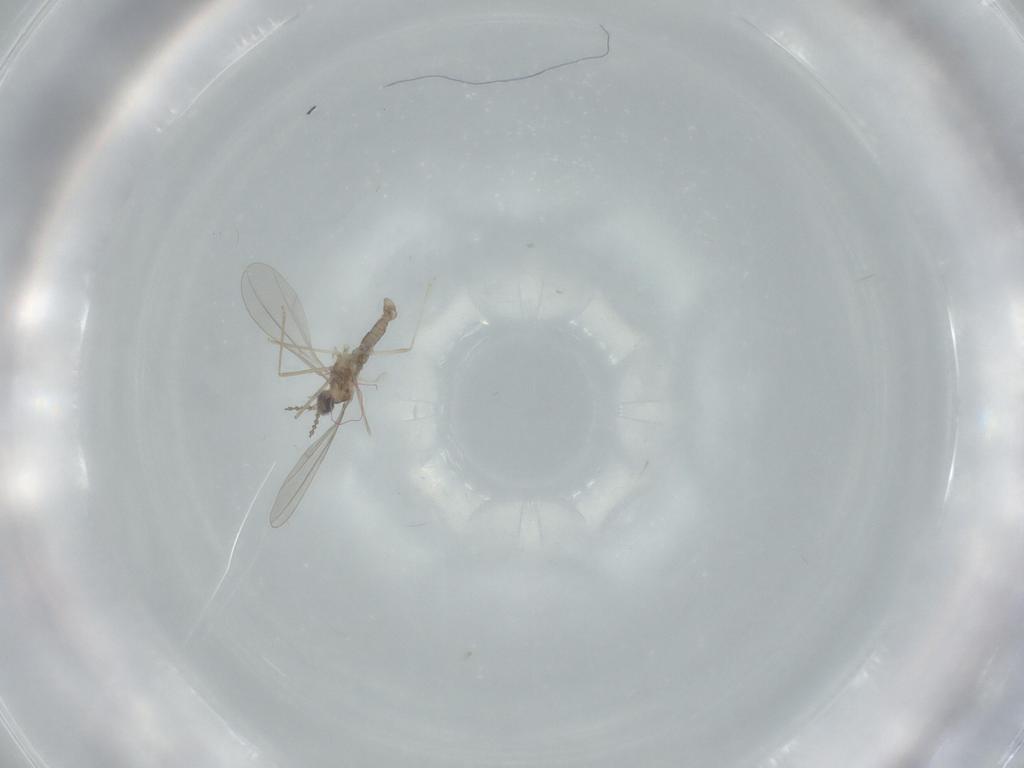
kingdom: Animalia
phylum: Arthropoda
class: Insecta
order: Diptera
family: Cecidomyiidae
